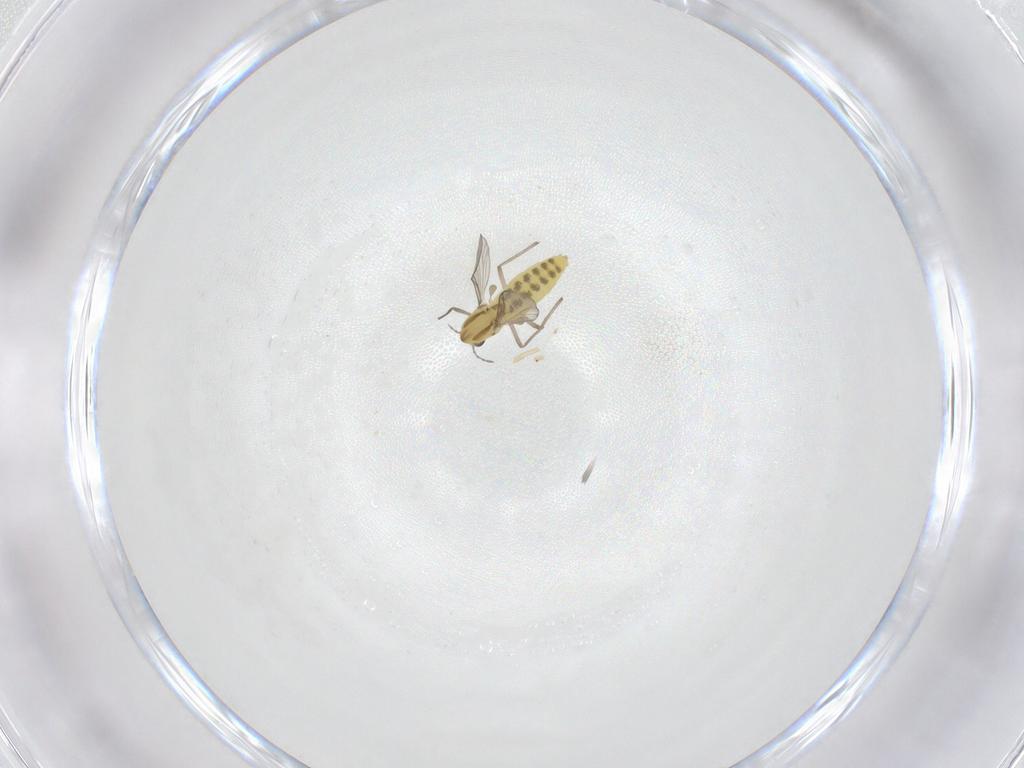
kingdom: Animalia
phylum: Arthropoda
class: Insecta
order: Diptera
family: Chironomidae
